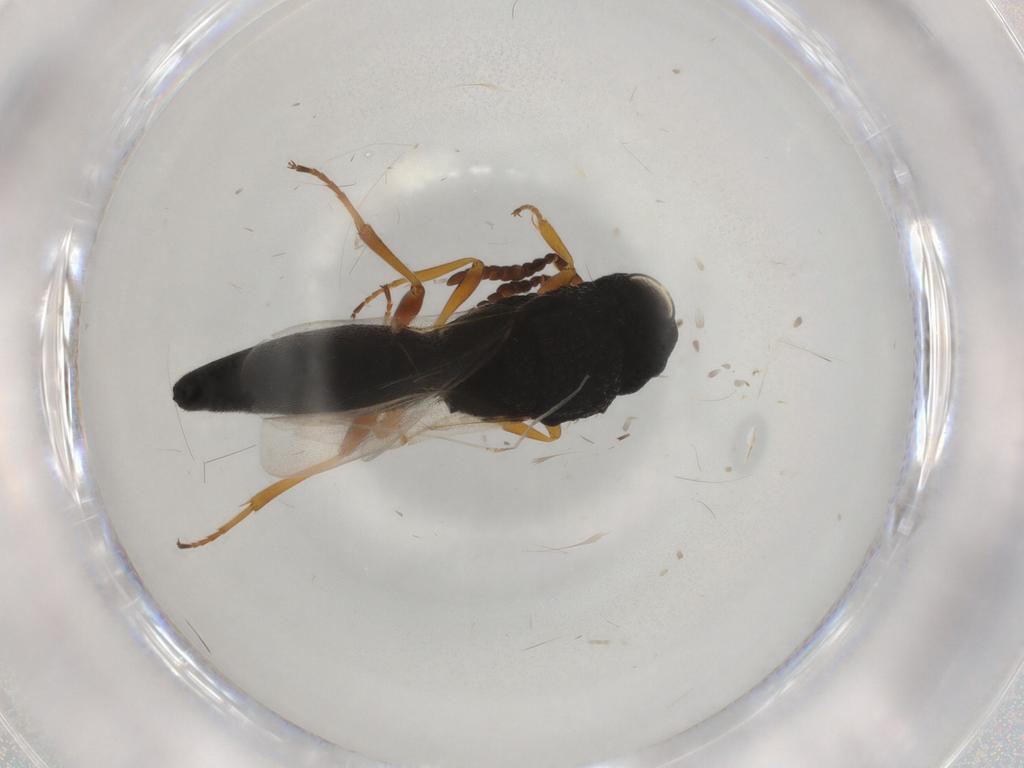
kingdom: Animalia
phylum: Arthropoda
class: Insecta
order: Hymenoptera
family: Scelionidae
